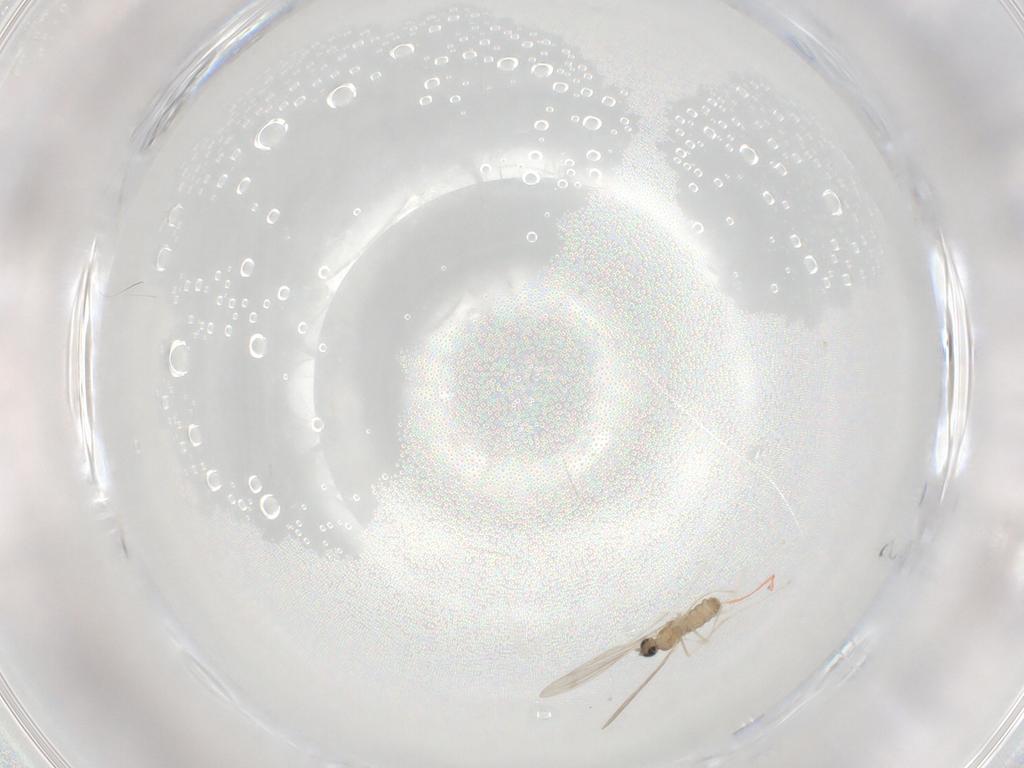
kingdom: Animalia
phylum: Arthropoda
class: Insecta
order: Diptera
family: Cecidomyiidae
